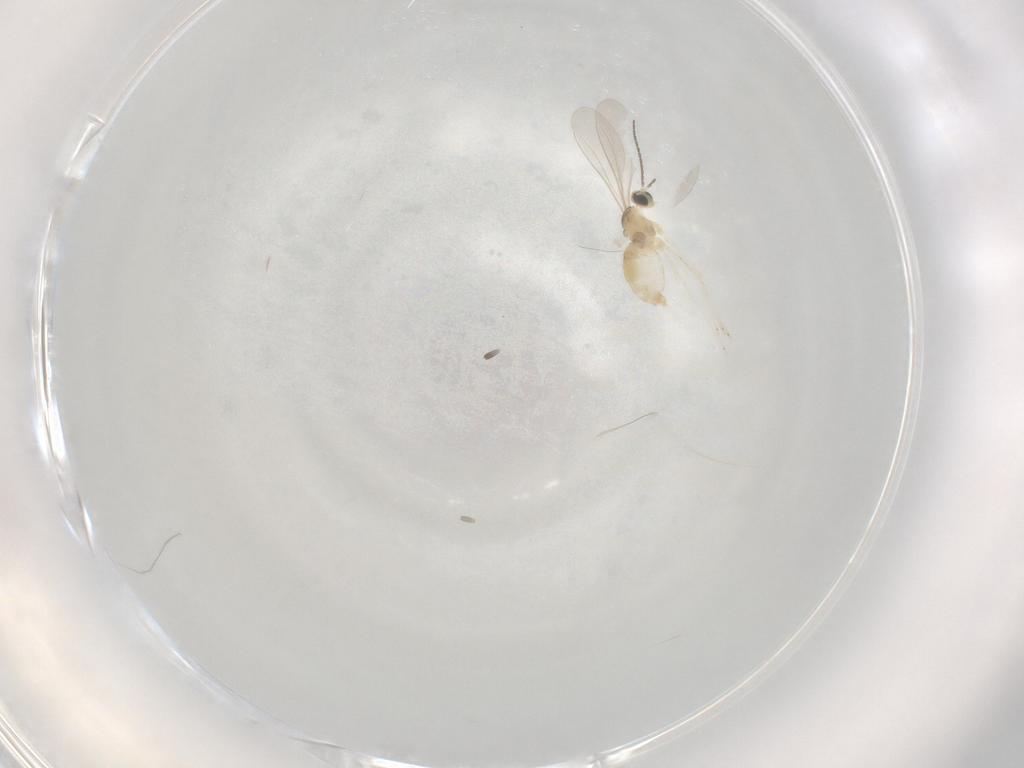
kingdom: Animalia
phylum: Arthropoda
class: Insecta
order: Diptera
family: Cecidomyiidae
